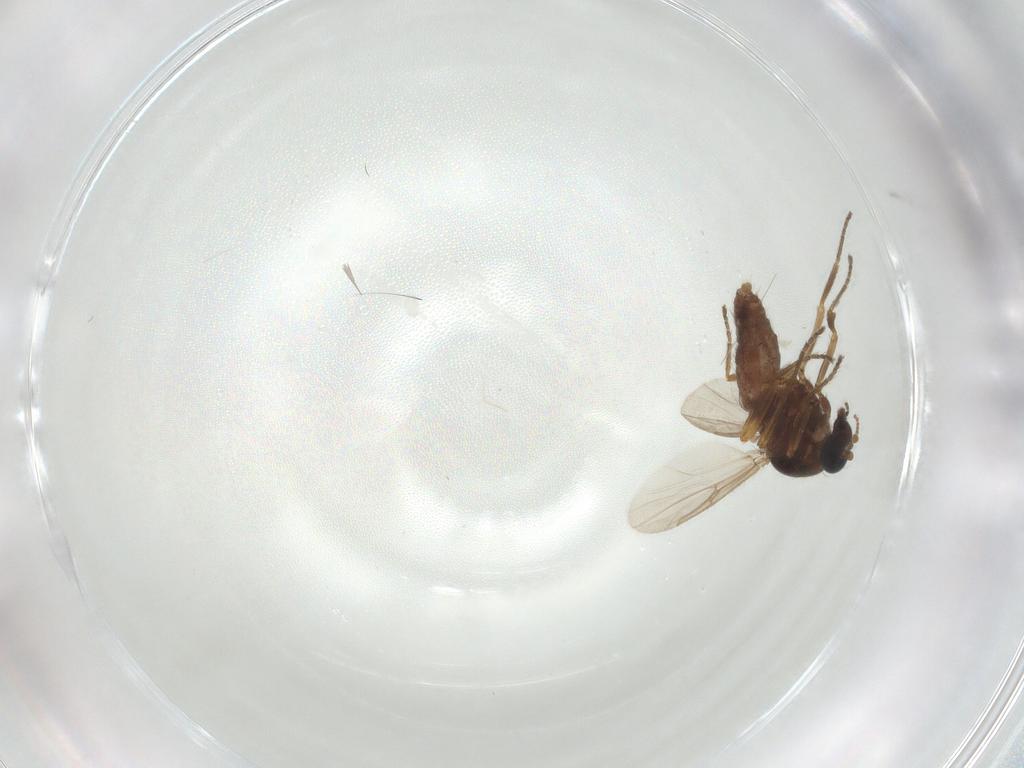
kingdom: Animalia
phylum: Arthropoda
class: Insecta
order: Diptera
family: Ceratopogonidae
